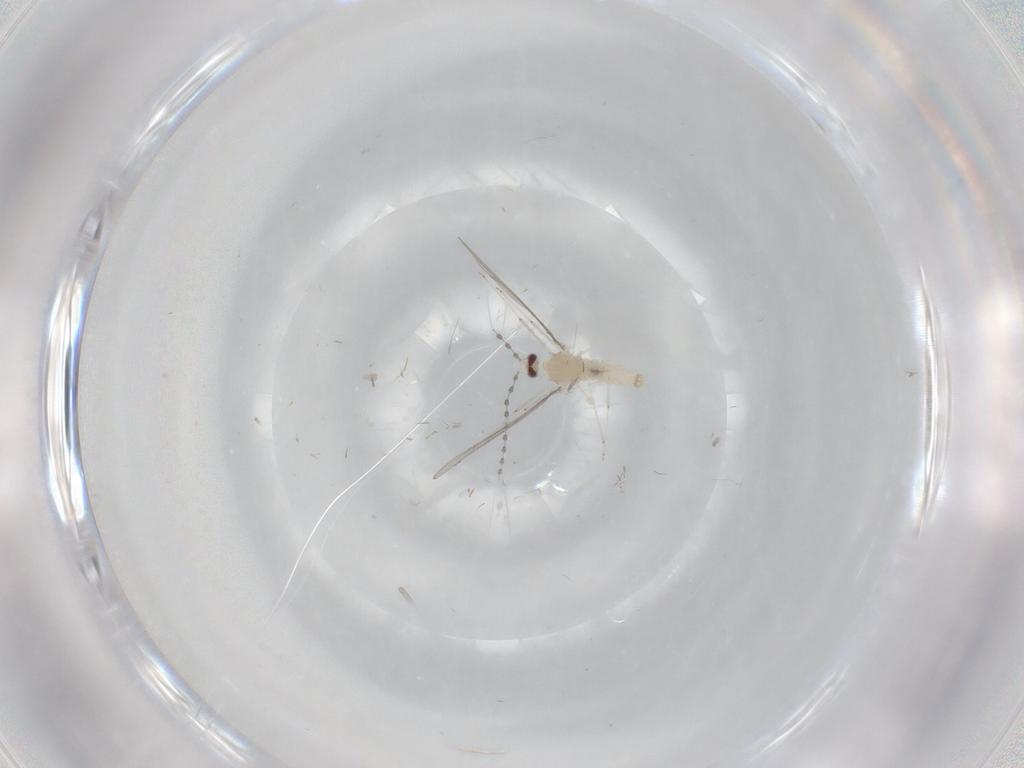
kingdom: Animalia
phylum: Arthropoda
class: Insecta
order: Diptera
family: Cecidomyiidae
